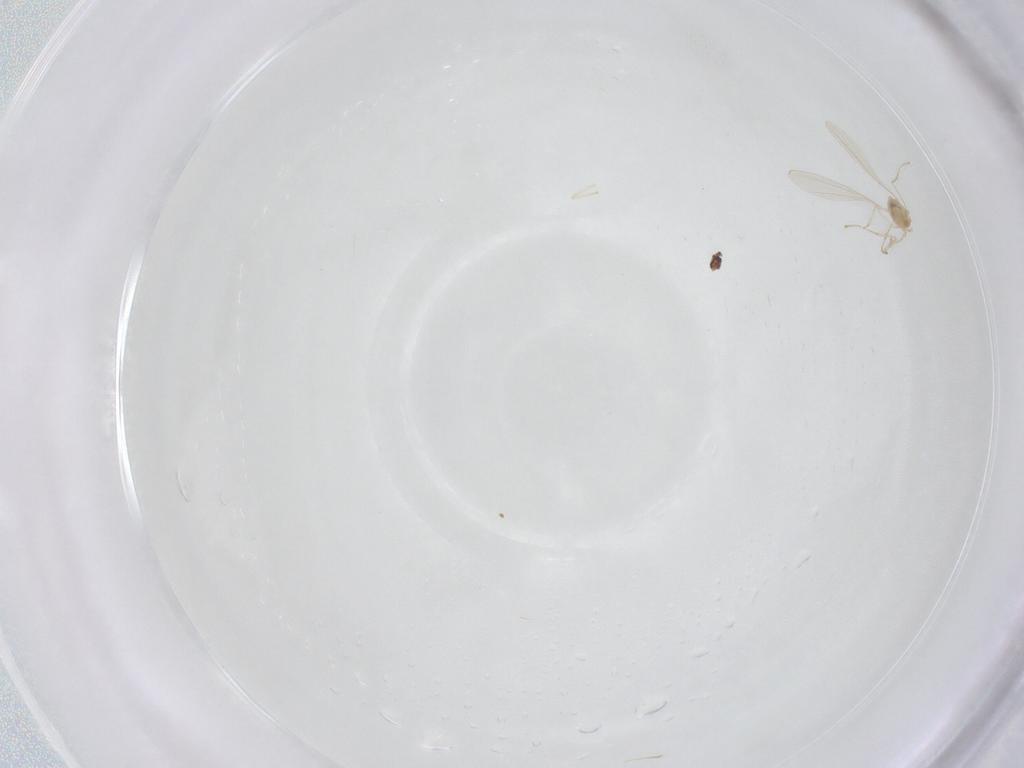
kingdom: Animalia
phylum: Arthropoda
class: Insecta
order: Diptera
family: Cecidomyiidae
